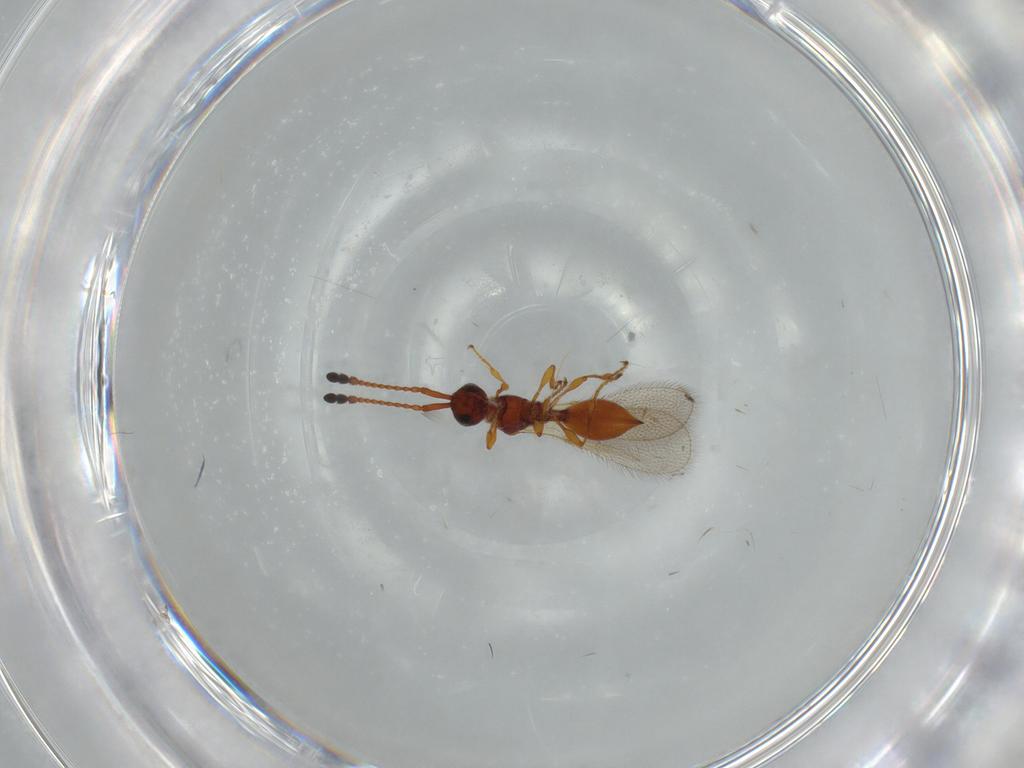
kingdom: Animalia
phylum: Arthropoda
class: Insecta
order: Hymenoptera
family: Diapriidae
